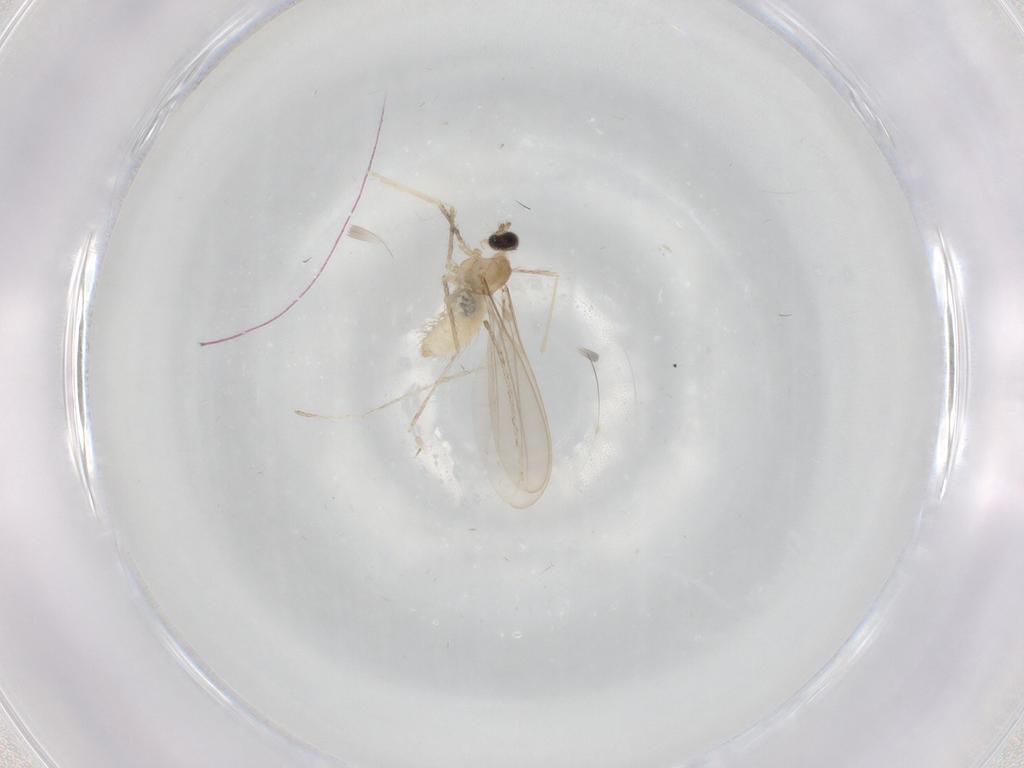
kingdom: Animalia
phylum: Arthropoda
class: Insecta
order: Diptera
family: Cecidomyiidae
